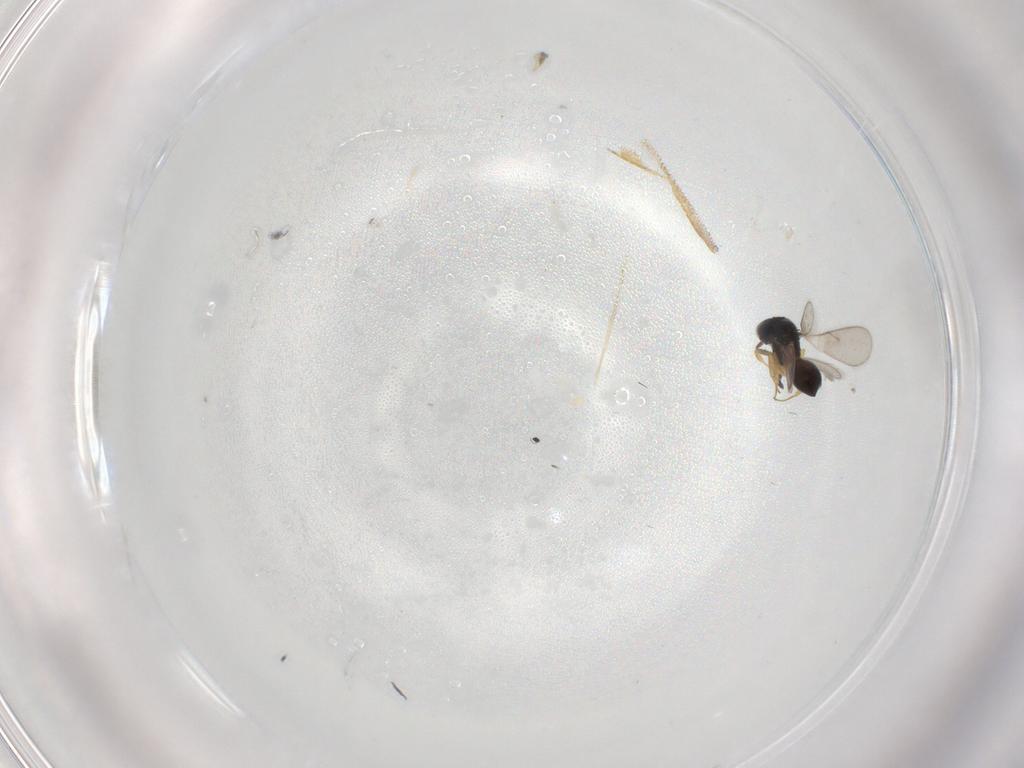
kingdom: Animalia
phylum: Arthropoda
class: Insecta
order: Hymenoptera
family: Scelionidae
